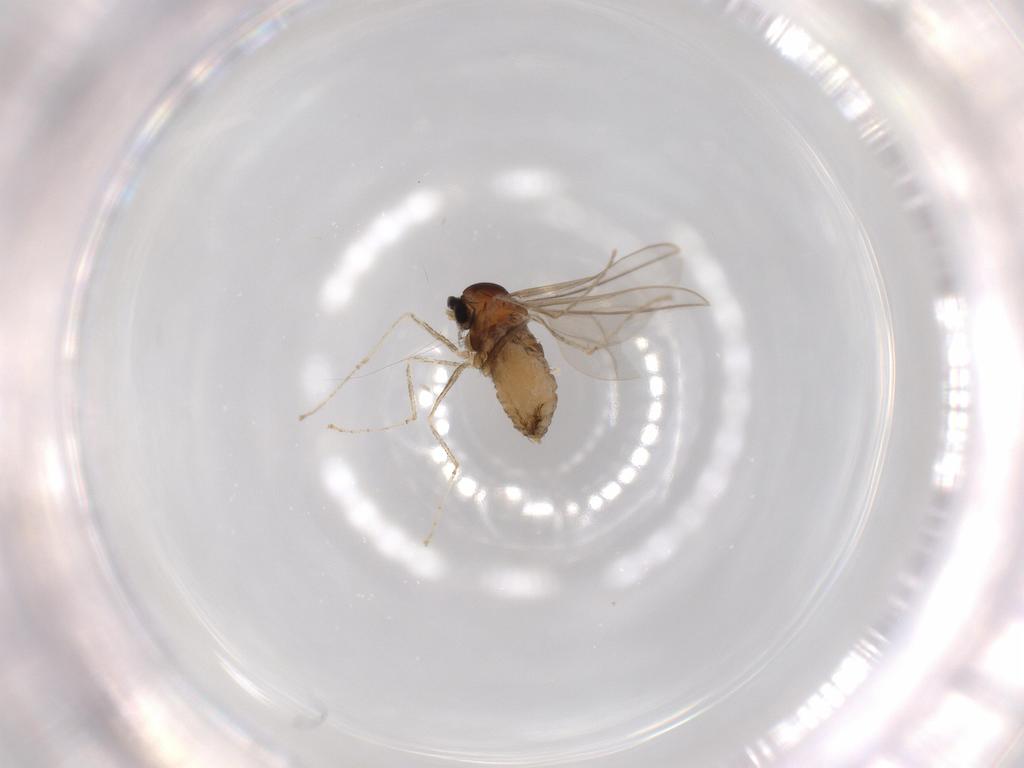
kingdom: Animalia
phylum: Arthropoda
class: Insecta
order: Diptera
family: Cecidomyiidae
